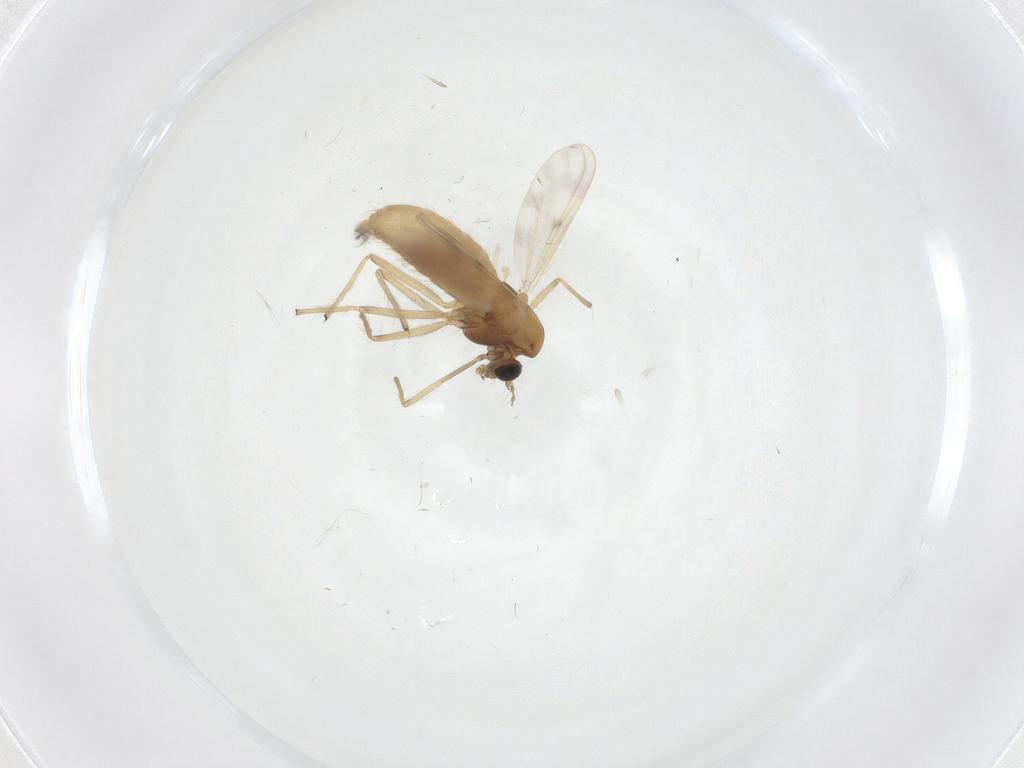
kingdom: Animalia
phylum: Arthropoda
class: Insecta
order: Diptera
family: Chironomidae
